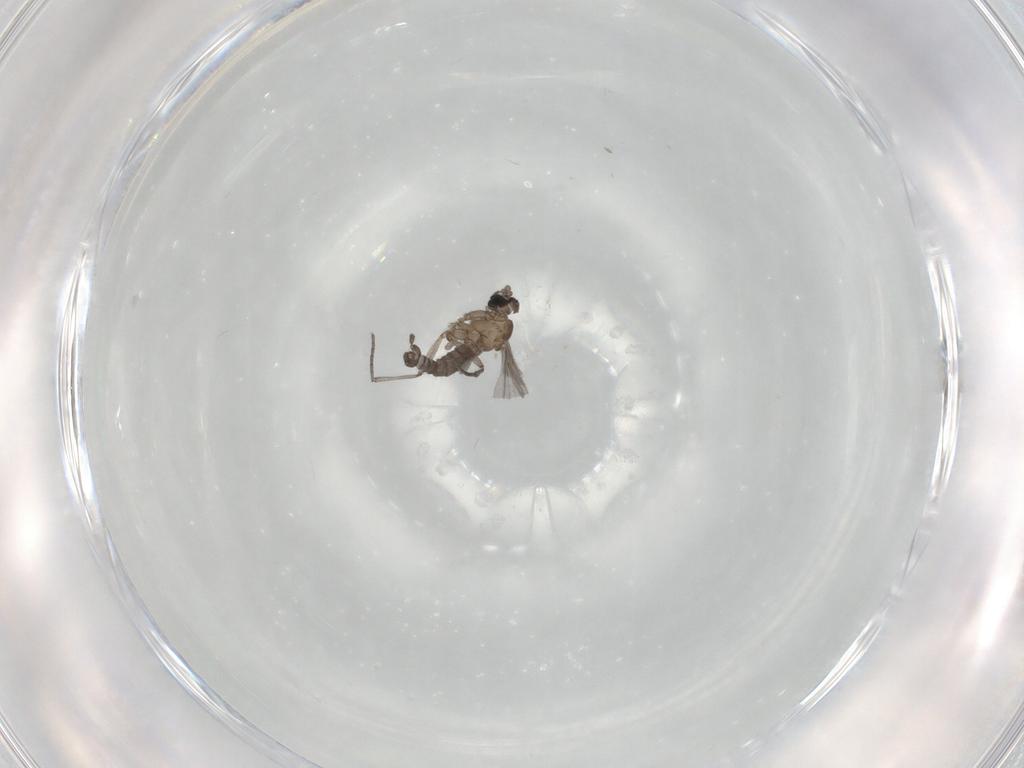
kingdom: Animalia
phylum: Arthropoda
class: Insecta
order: Diptera
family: Sciaridae
